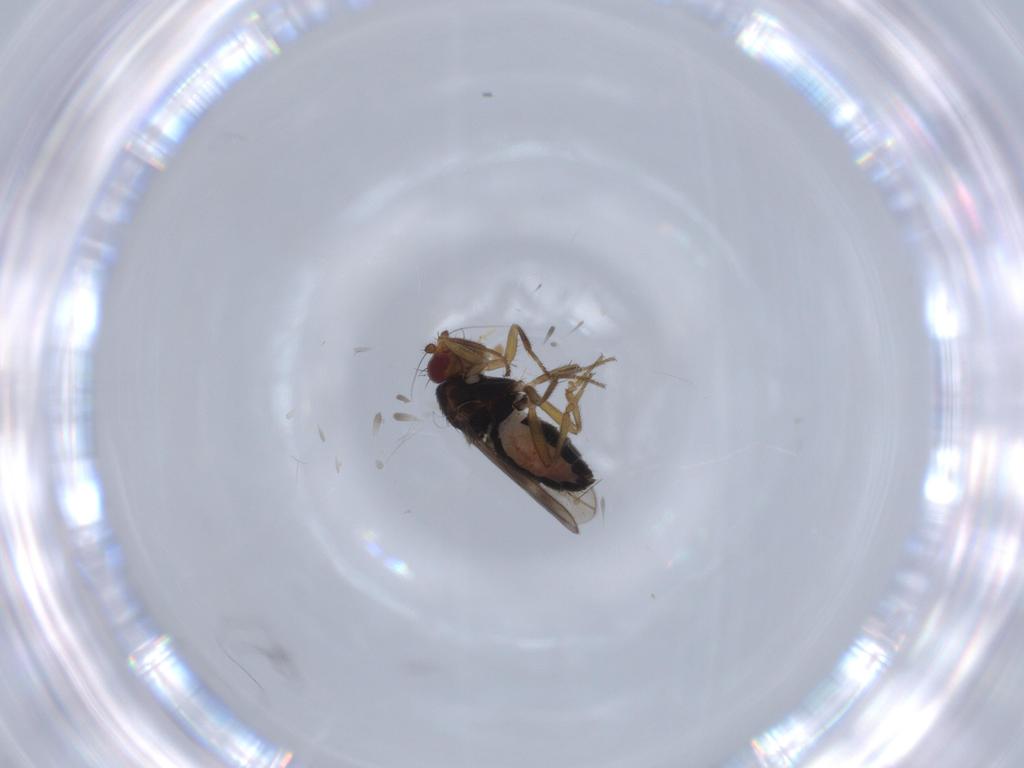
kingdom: Animalia
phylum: Arthropoda
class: Insecta
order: Diptera
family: Sphaeroceridae
